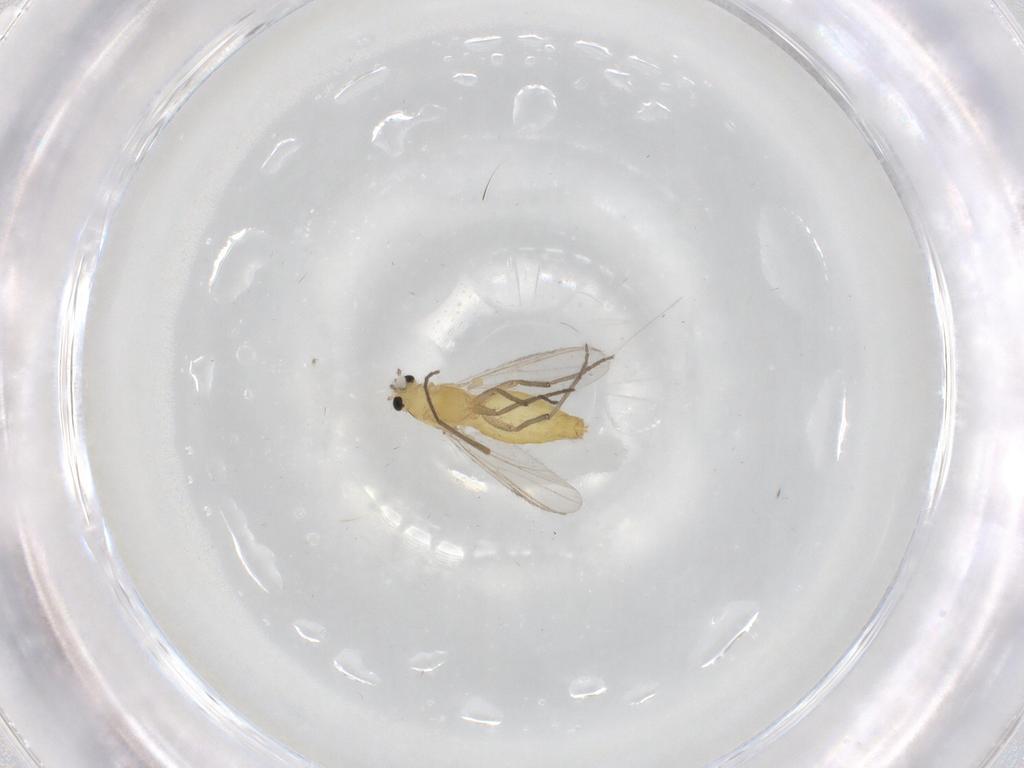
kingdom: Animalia
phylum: Arthropoda
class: Insecta
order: Diptera
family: Chironomidae
